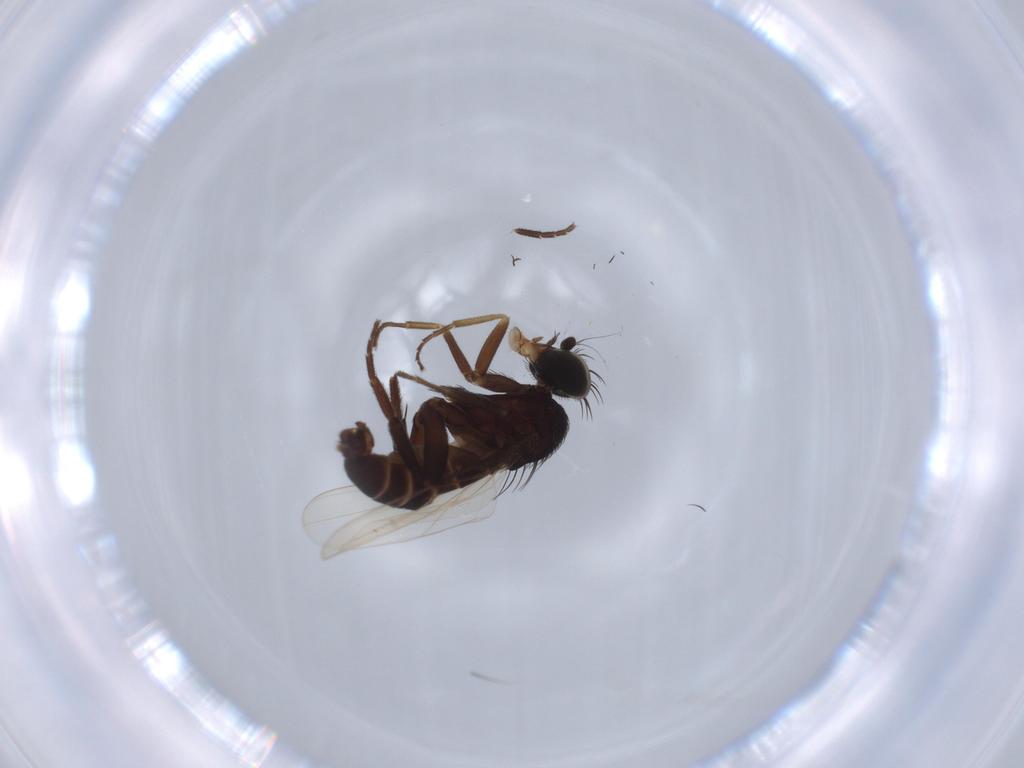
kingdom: Animalia
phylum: Arthropoda
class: Insecta
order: Diptera
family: Phoridae
